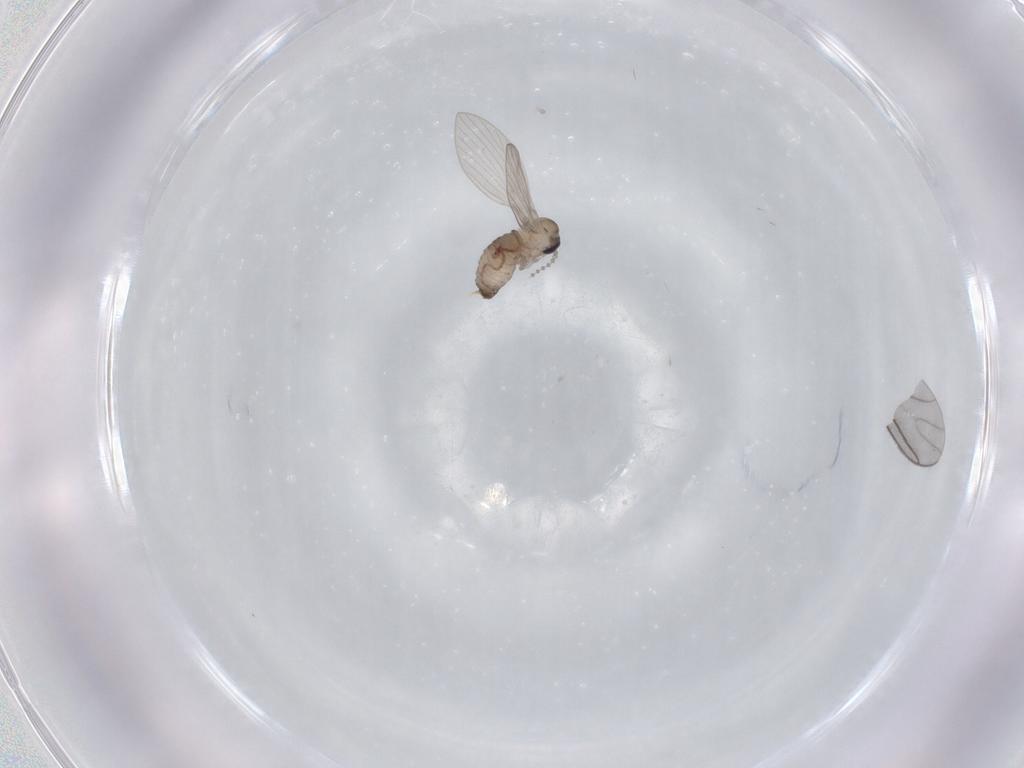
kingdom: Animalia
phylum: Arthropoda
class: Insecta
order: Diptera
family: Psychodidae
